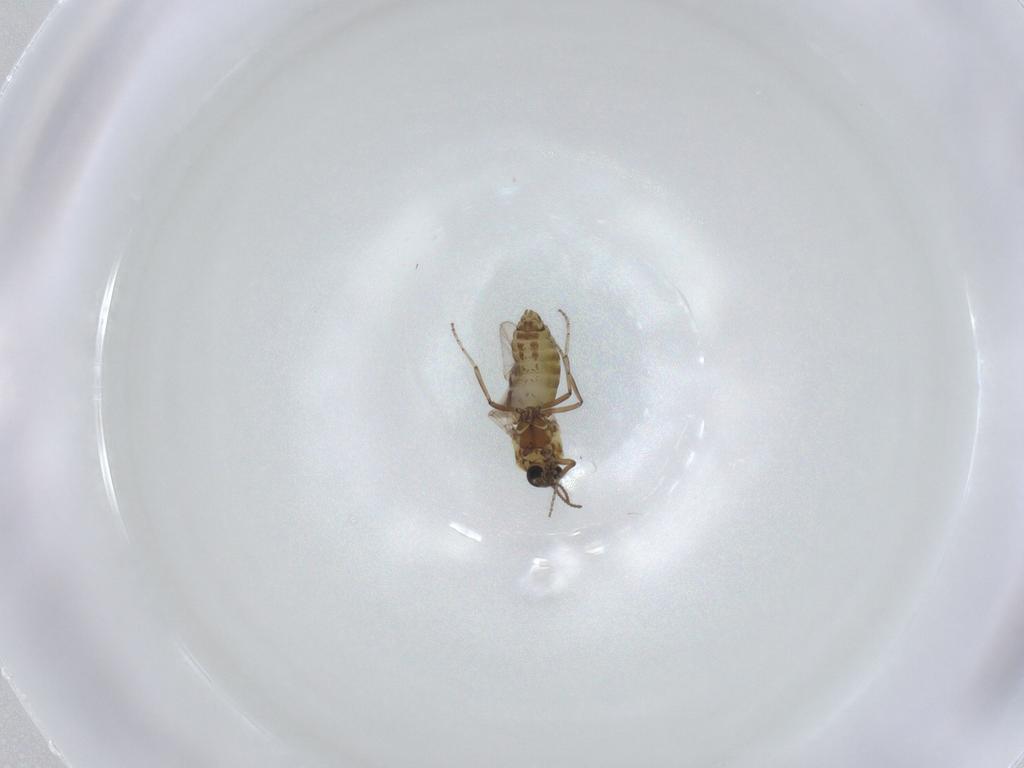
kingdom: Animalia
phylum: Arthropoda
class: Insecta
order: Diptera
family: Ceratopogonidae
